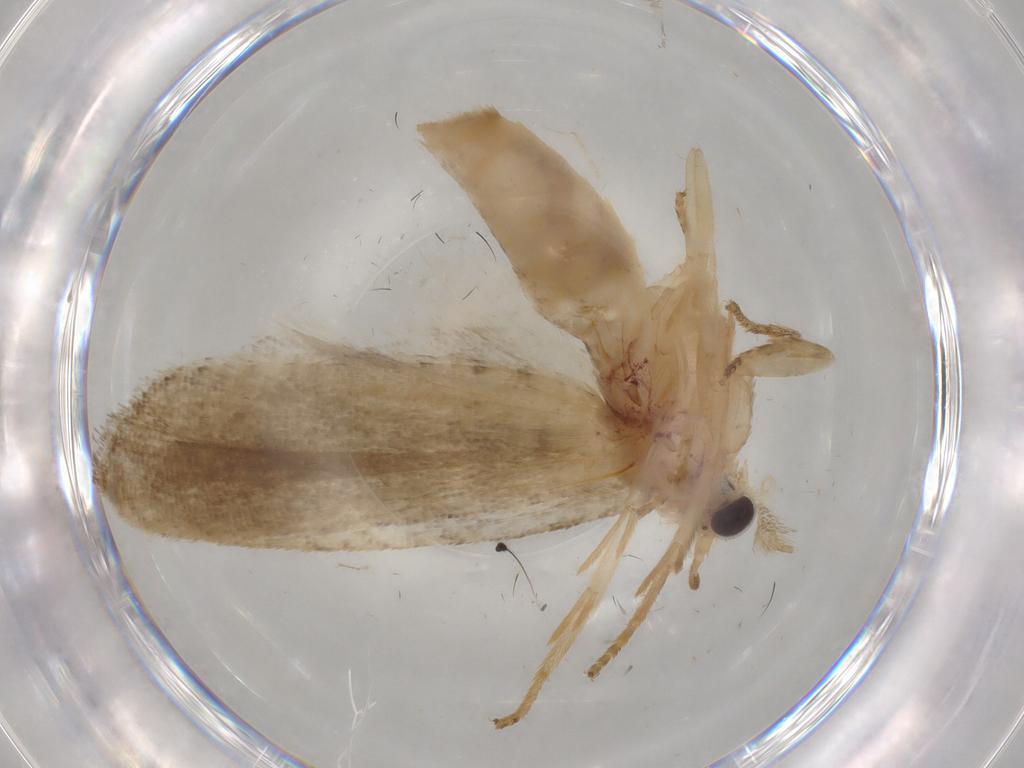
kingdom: Animalia
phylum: Arthropoda
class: Insecta
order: Lepidoptera
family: Tortricidae
